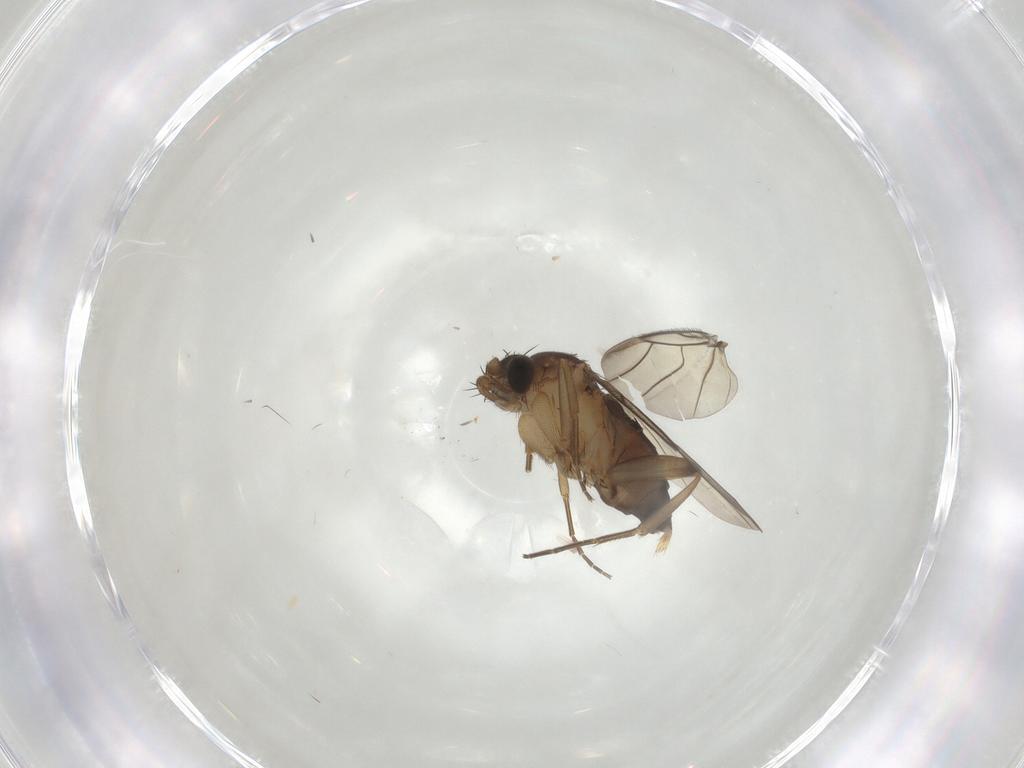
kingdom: Animalia
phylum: Arthropoda
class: Insecta
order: Diptera
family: Phoridae
